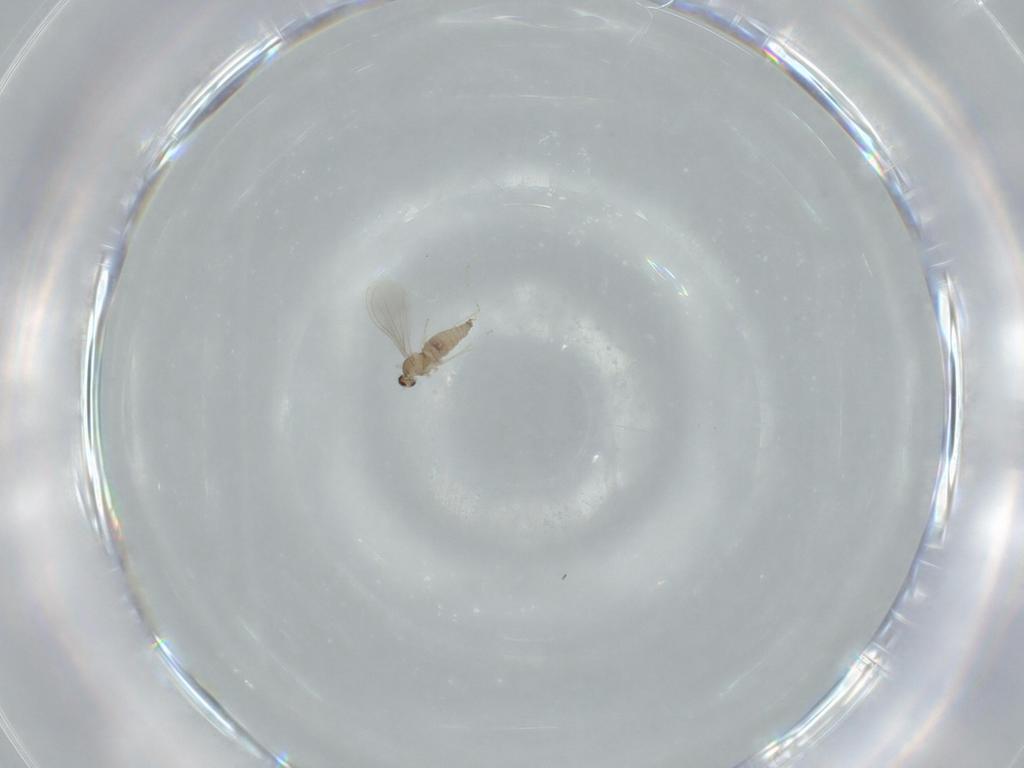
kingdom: Animalia
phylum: Arthropoda
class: Insecta
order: Diptera
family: Cecidomyiidae
